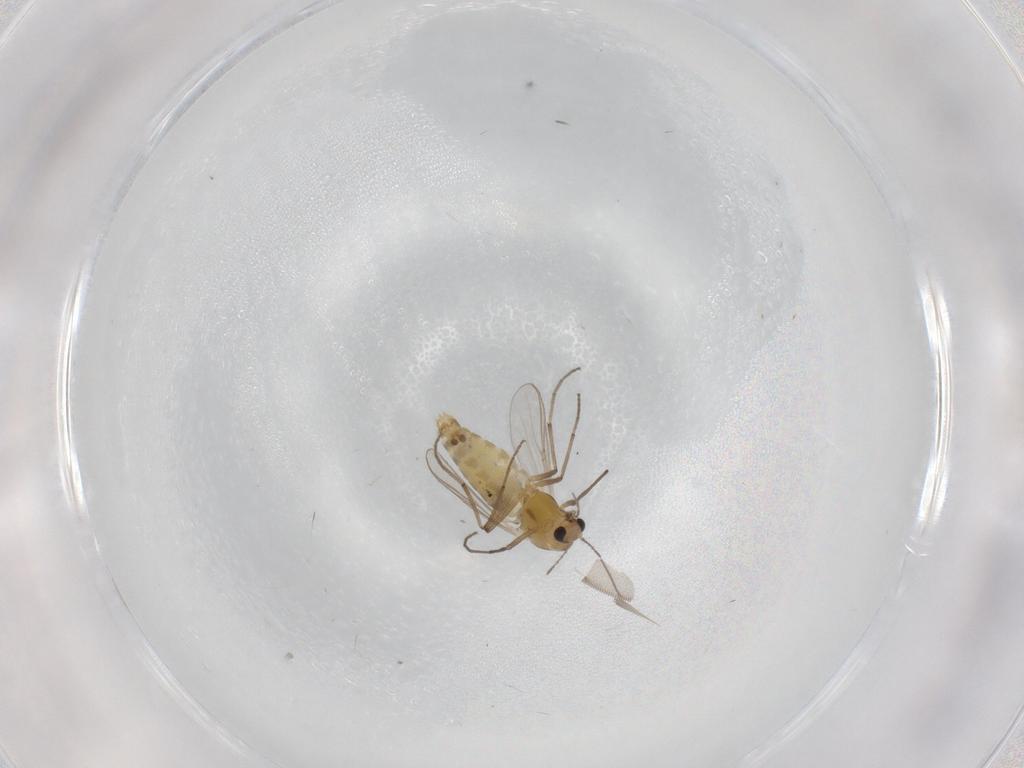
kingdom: Animalia
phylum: Arthropoda
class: Insecta
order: Diptera
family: Chironomidae
